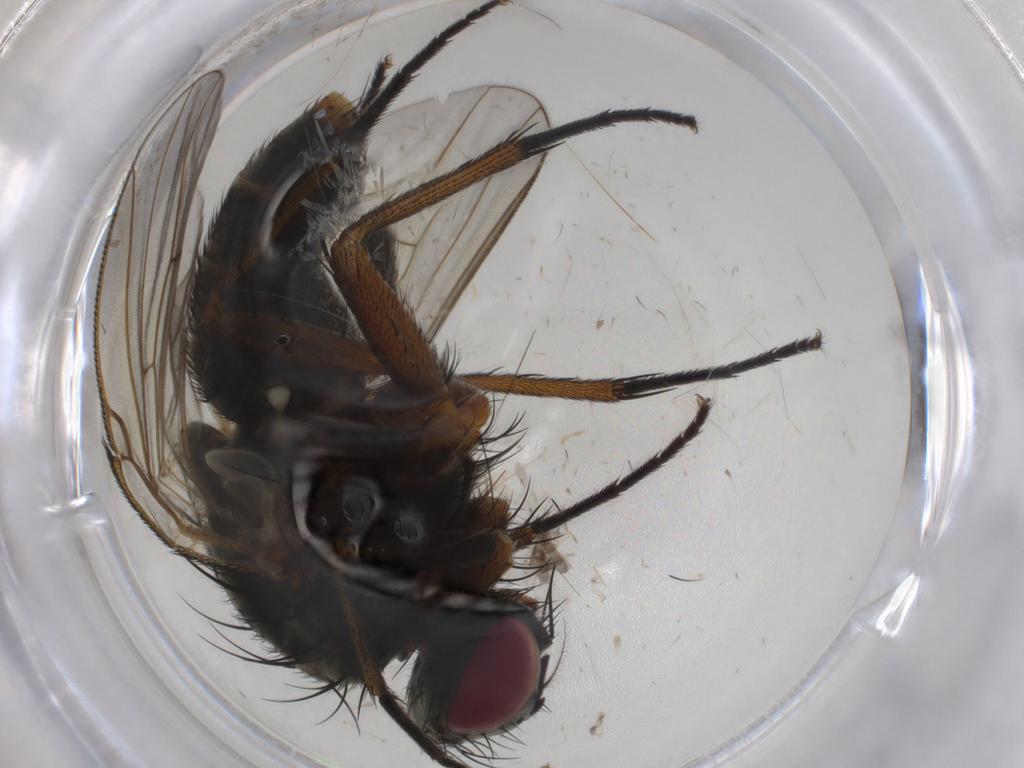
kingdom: Animalia
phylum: Arthropoda
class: Insecta
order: Diptera
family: Muscidae
